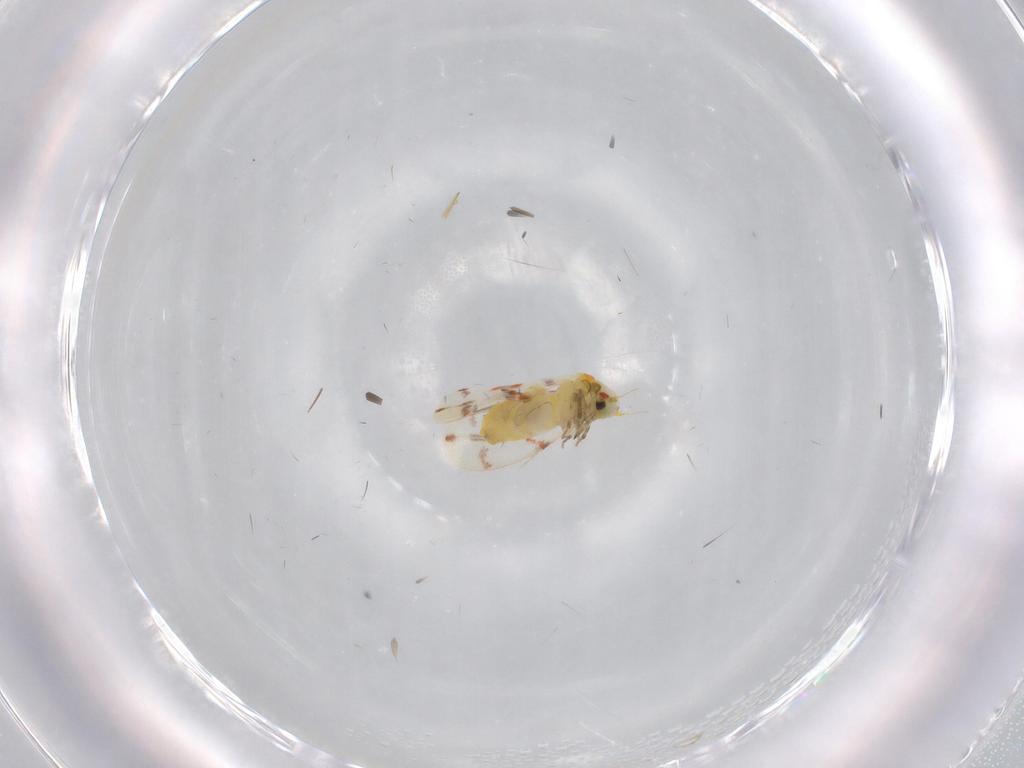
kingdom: Animalia
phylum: Arthropoda
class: Insecta
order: Hemiptera
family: Aleyrodidae
